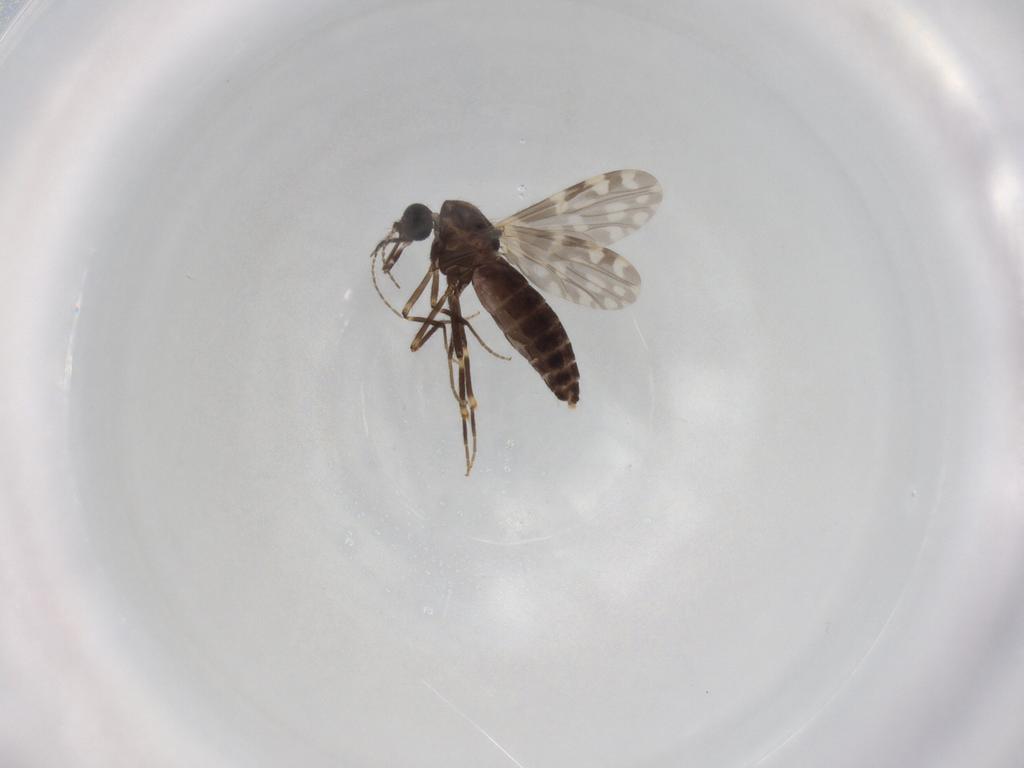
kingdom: Animalia
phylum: Arthropoda
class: Insecta
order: Diptera
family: Ceratopogonidae
